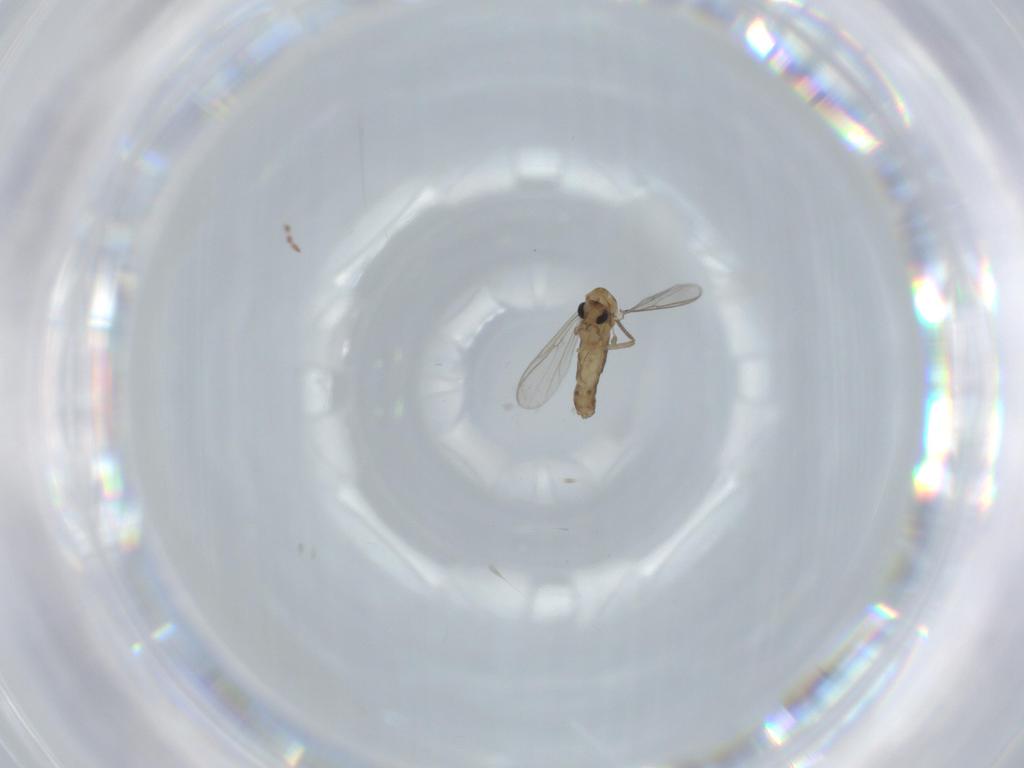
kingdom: Animalia
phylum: Arthropoda
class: Insecta
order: Diptera
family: Chironomidae
